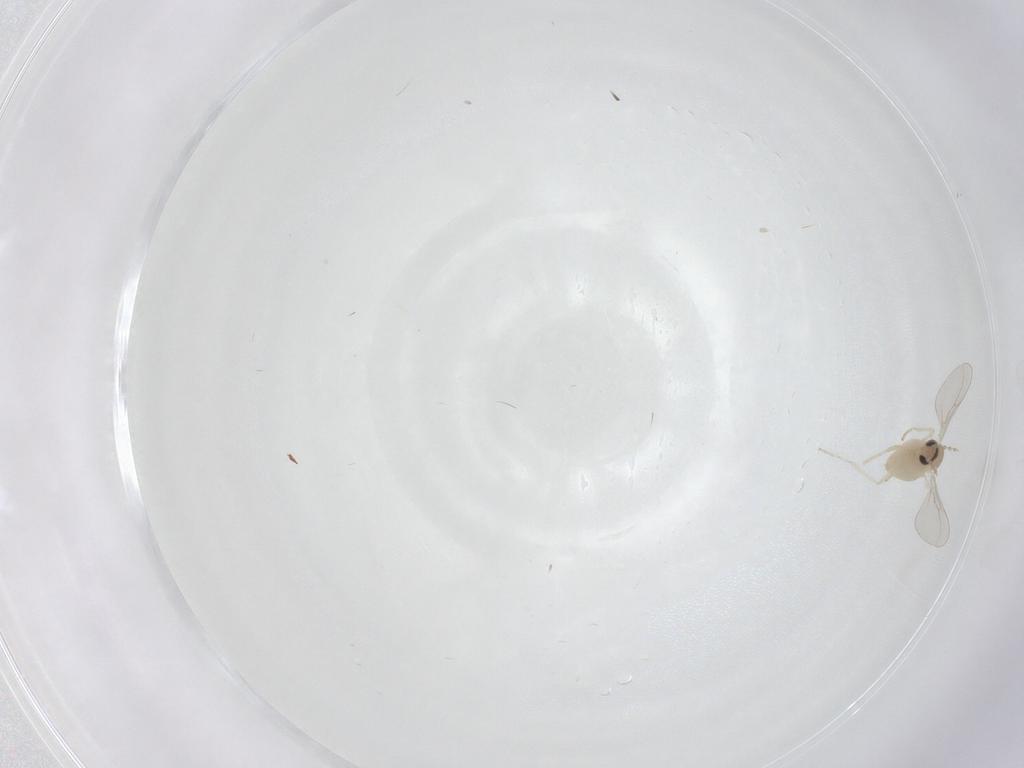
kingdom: Animalia
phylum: Arthropoda
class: Insecta
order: Diptera
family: Cecidomyiidae
